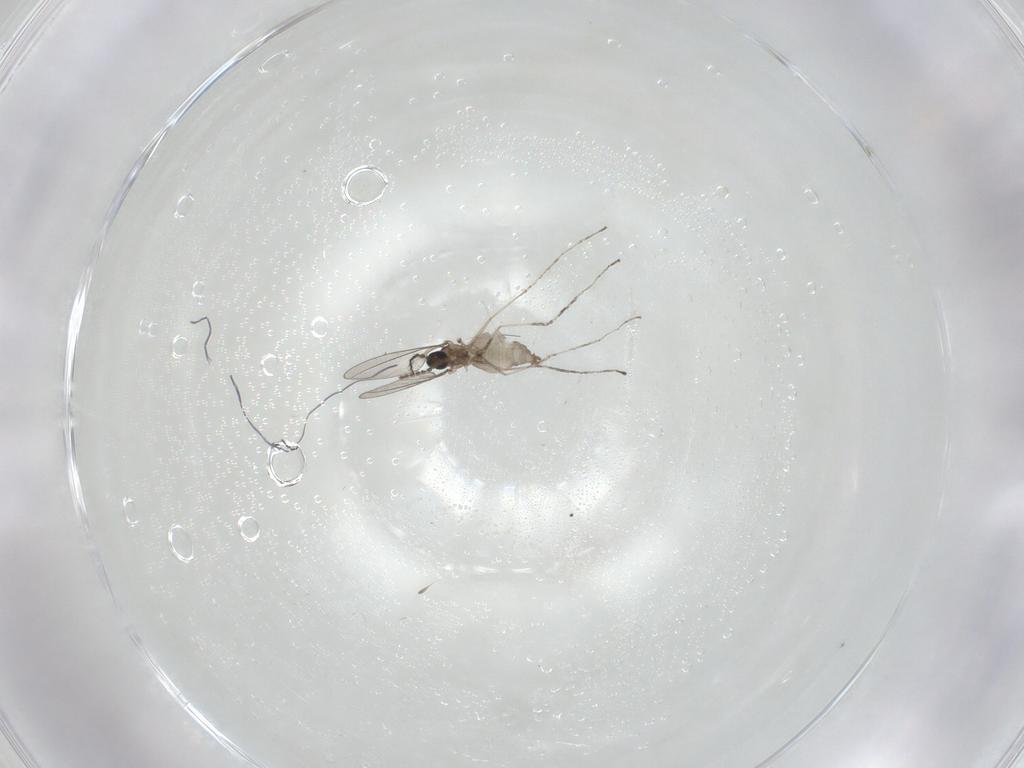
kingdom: Animalia
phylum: Arthropoda
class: Insecta
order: Diptera
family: Cecidomyiidae
